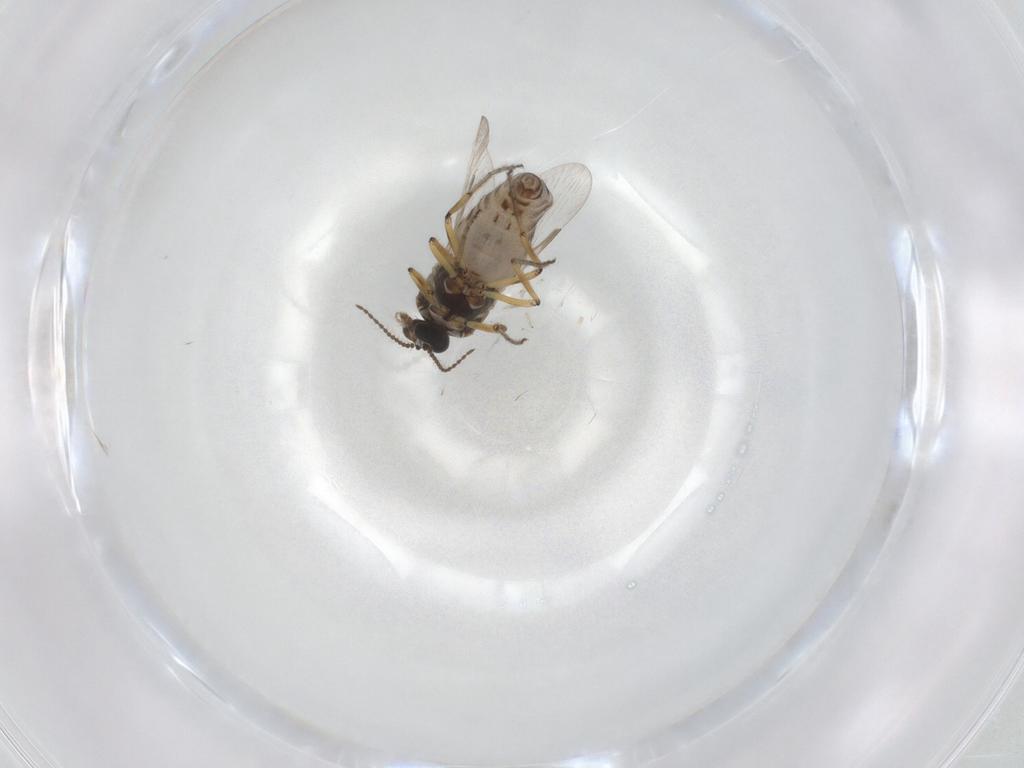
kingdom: Animalia
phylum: Arthropoda
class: Insecta
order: Diptera
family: Ceratopogonidae
